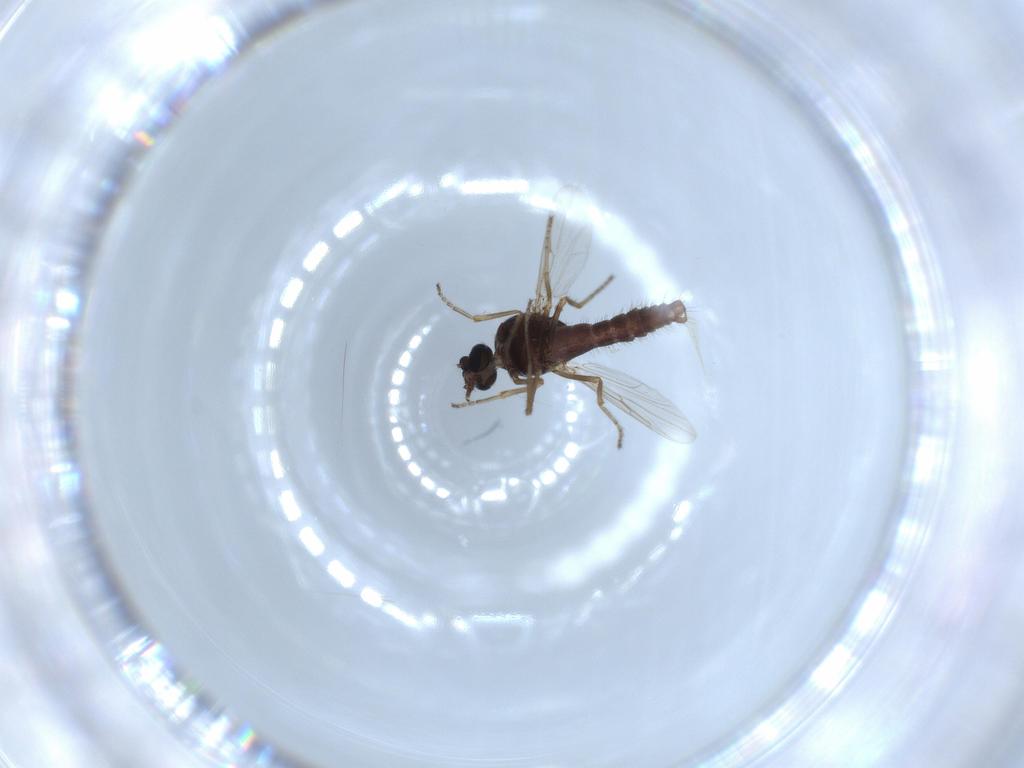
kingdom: Animalia
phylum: Arthropoda
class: Insecta
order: Diptera
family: Ceratopogonidae
